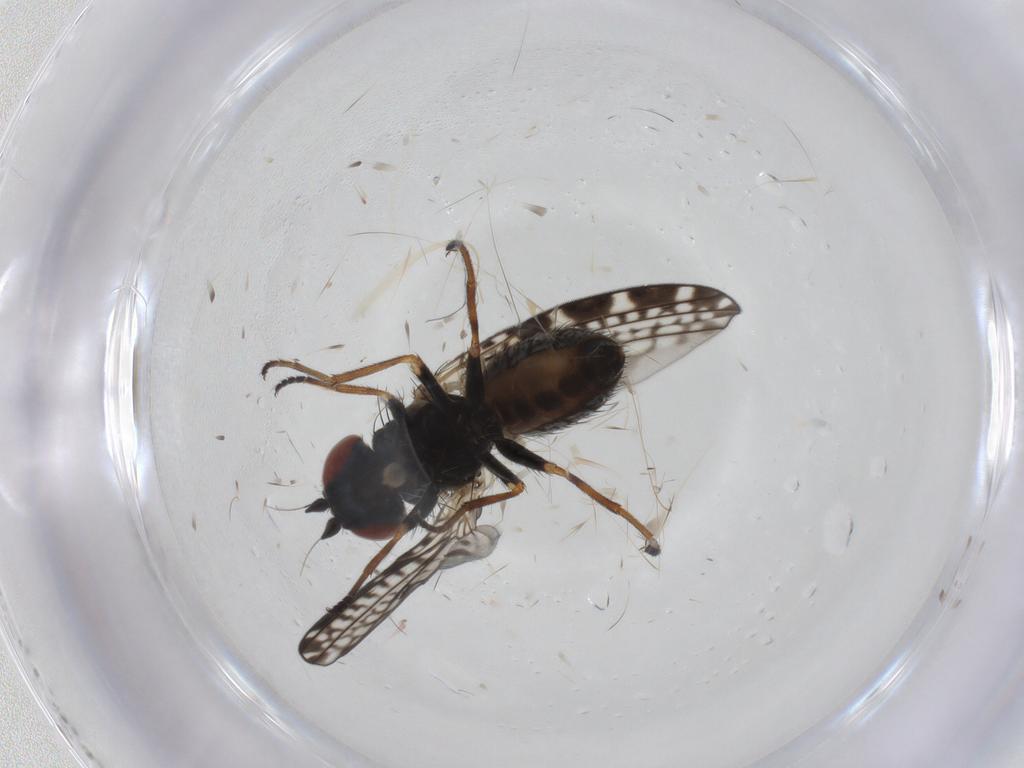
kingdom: Animalia
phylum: Arthropoda
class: Insecta
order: Diptera
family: Chamaemyiidae
